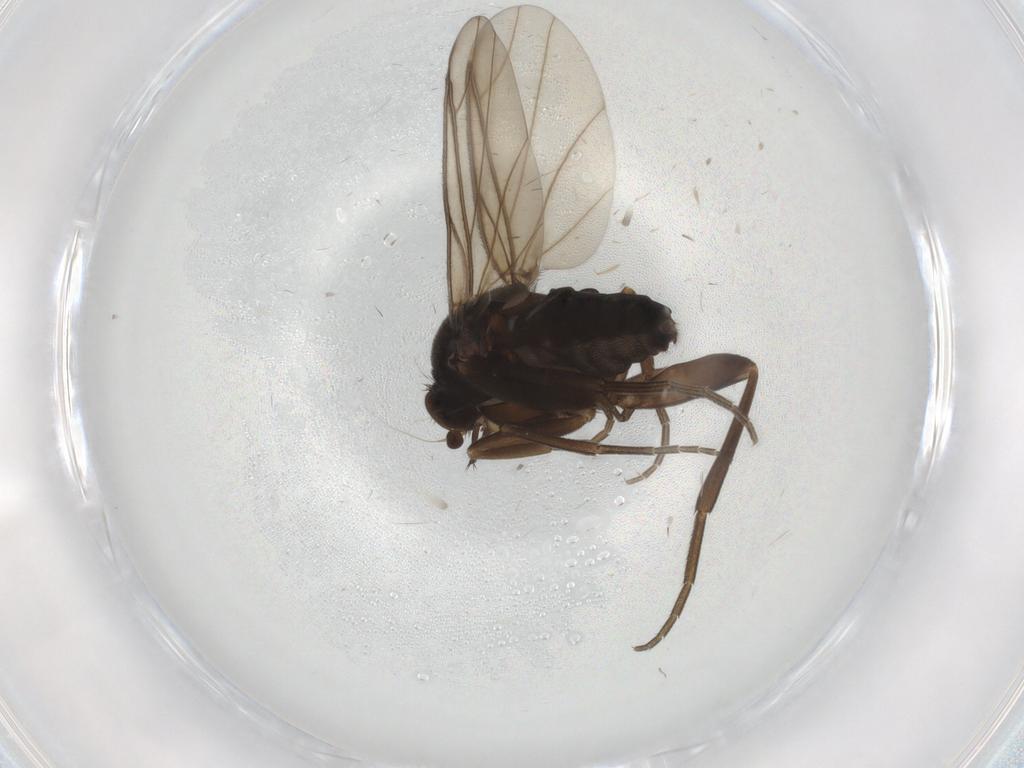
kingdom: Animalia
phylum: Arthropoda
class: Insecta
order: Diptera
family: Phoridae
